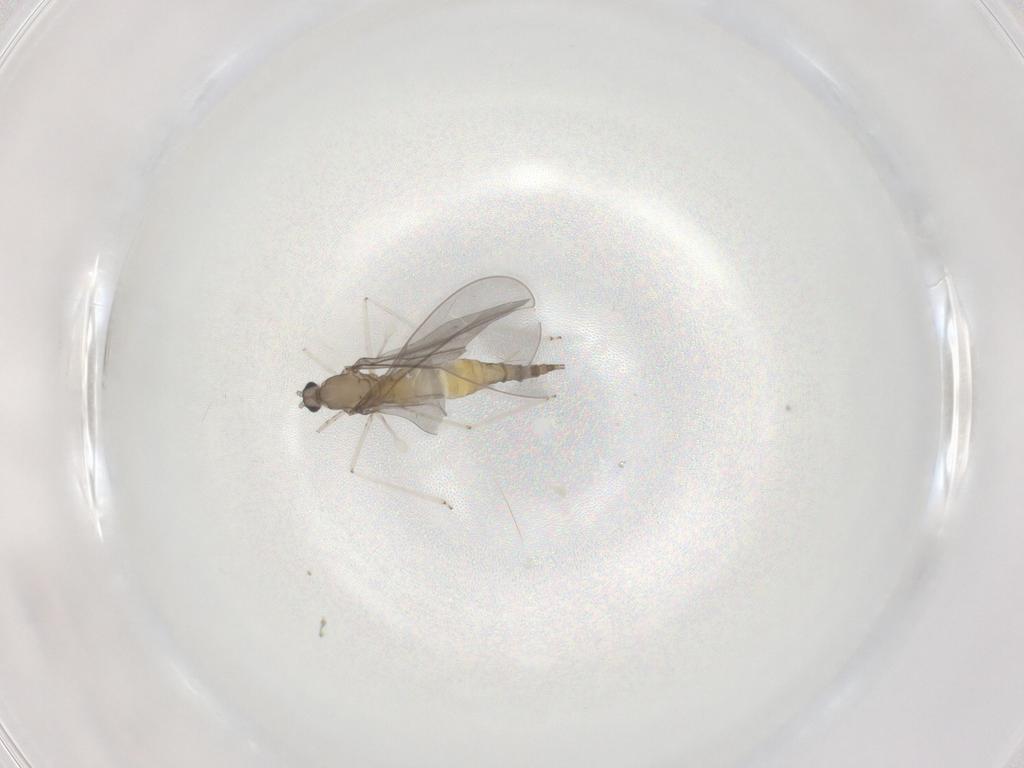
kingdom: Animalia
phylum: Arthropoda
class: Insecta
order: Diptera
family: Cecidomyiidae
